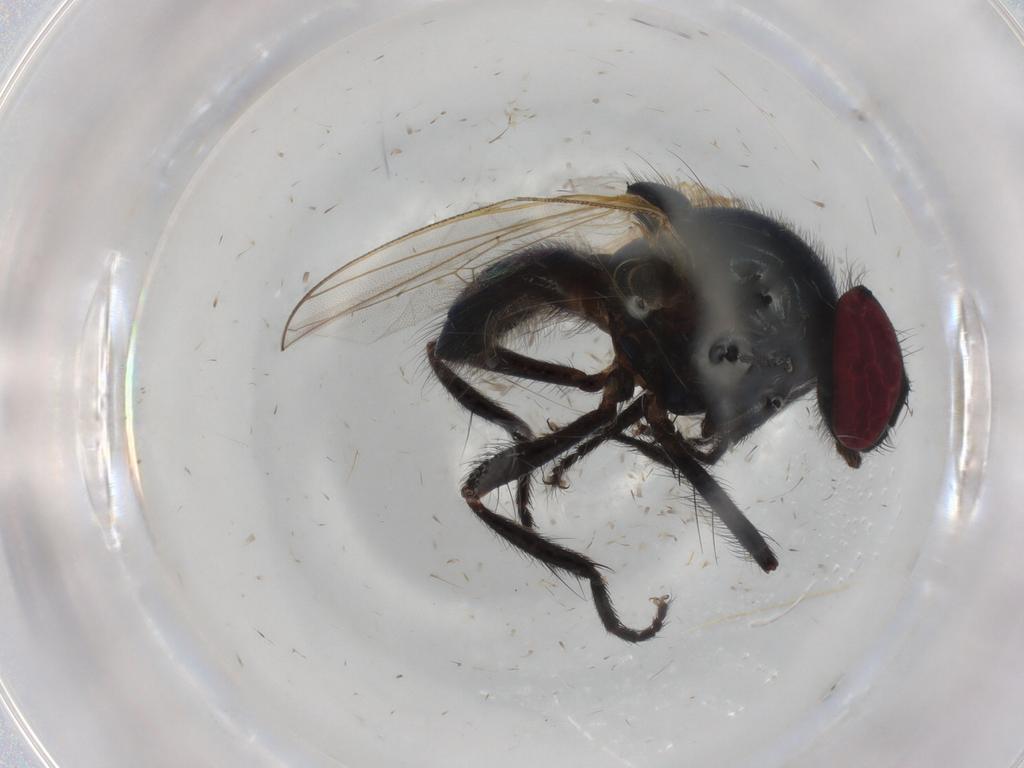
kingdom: Animalia
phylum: Arthropoda
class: Insecta
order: Diptera
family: Muscidae
